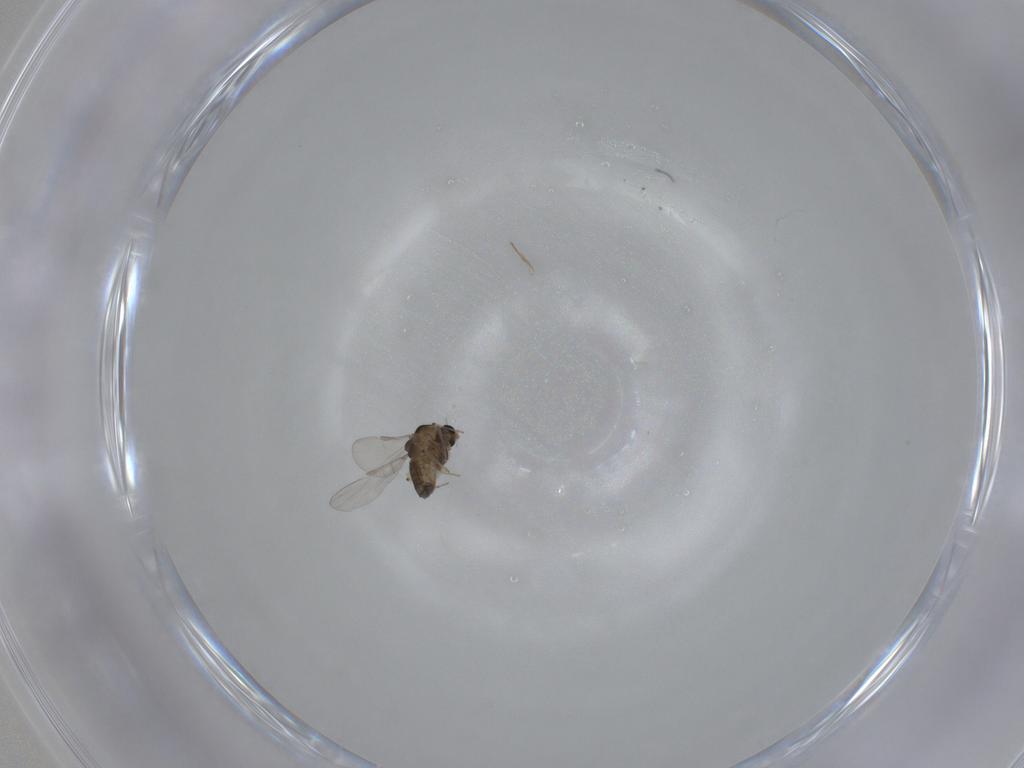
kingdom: Animalia
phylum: Arthropoda
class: Insecta
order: Diptera
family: Chironomidae
